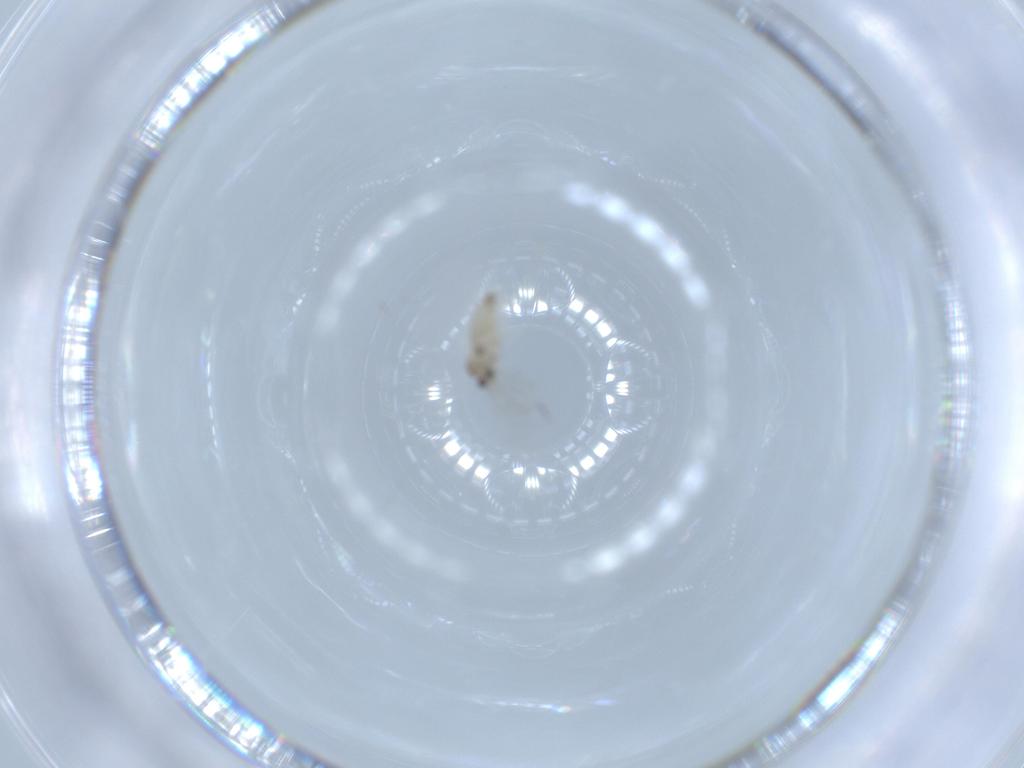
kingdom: Animalia
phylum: Arthropoda
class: Insecta
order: Diptera
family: Cecidomyiidae
